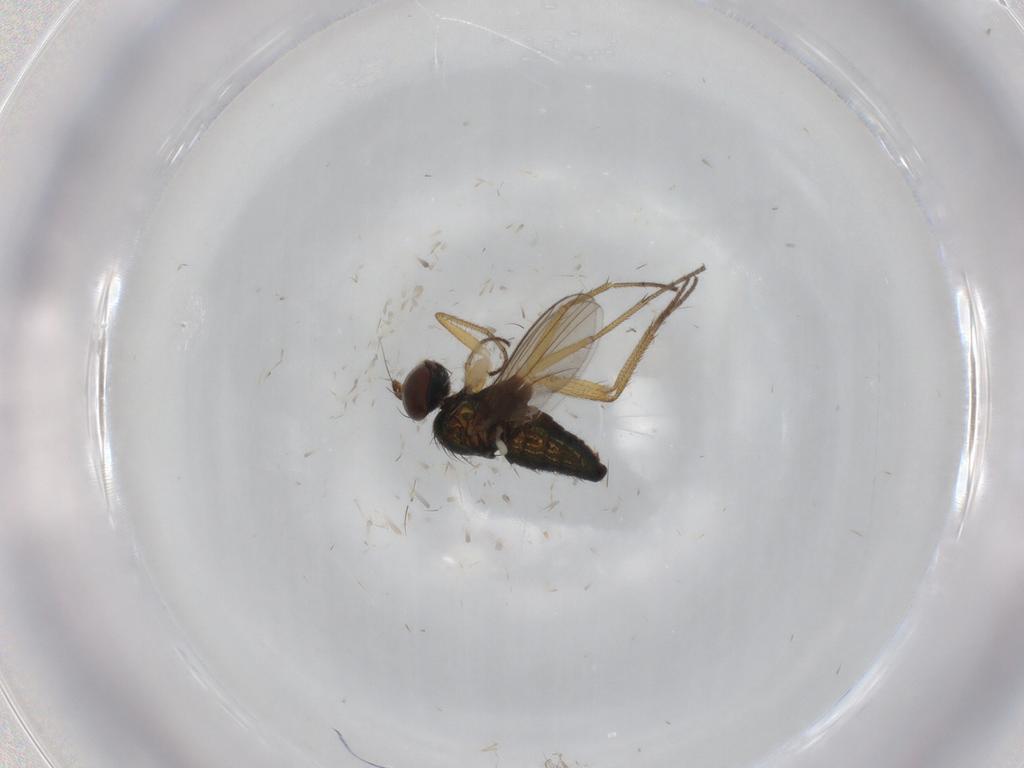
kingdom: Animalia
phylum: Arthropoda
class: Insecta
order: Diptera
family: Dolichopodidae
